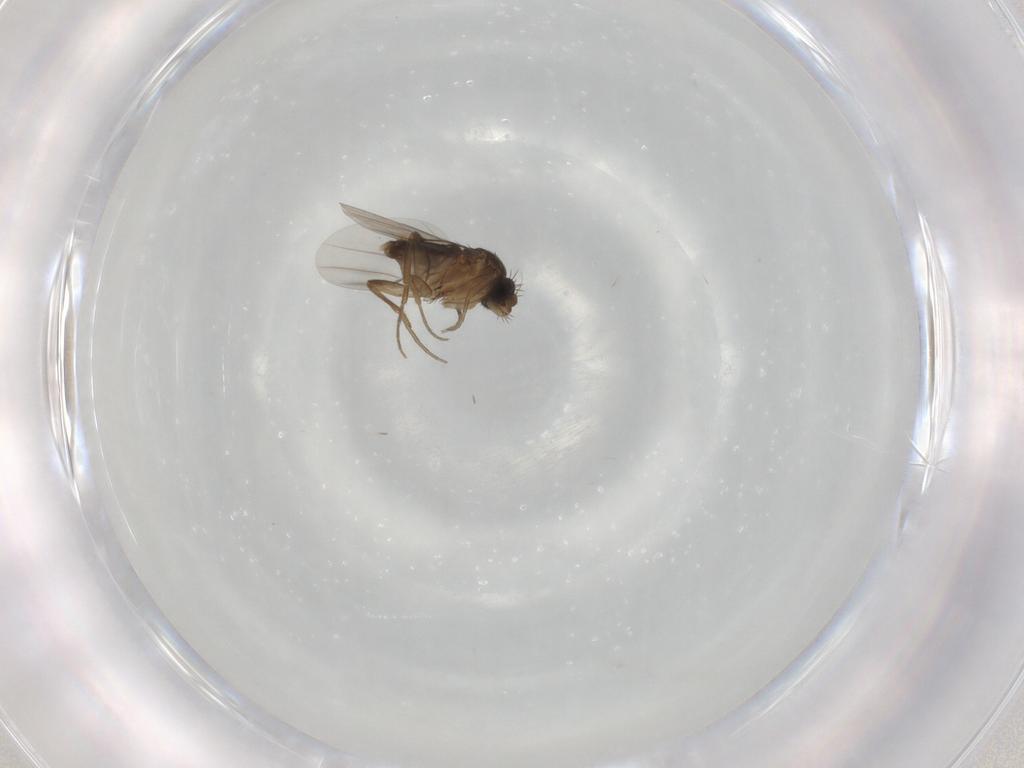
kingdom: Animalia
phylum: Arthropoda
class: Insecta
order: Diptera
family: Phoridae
